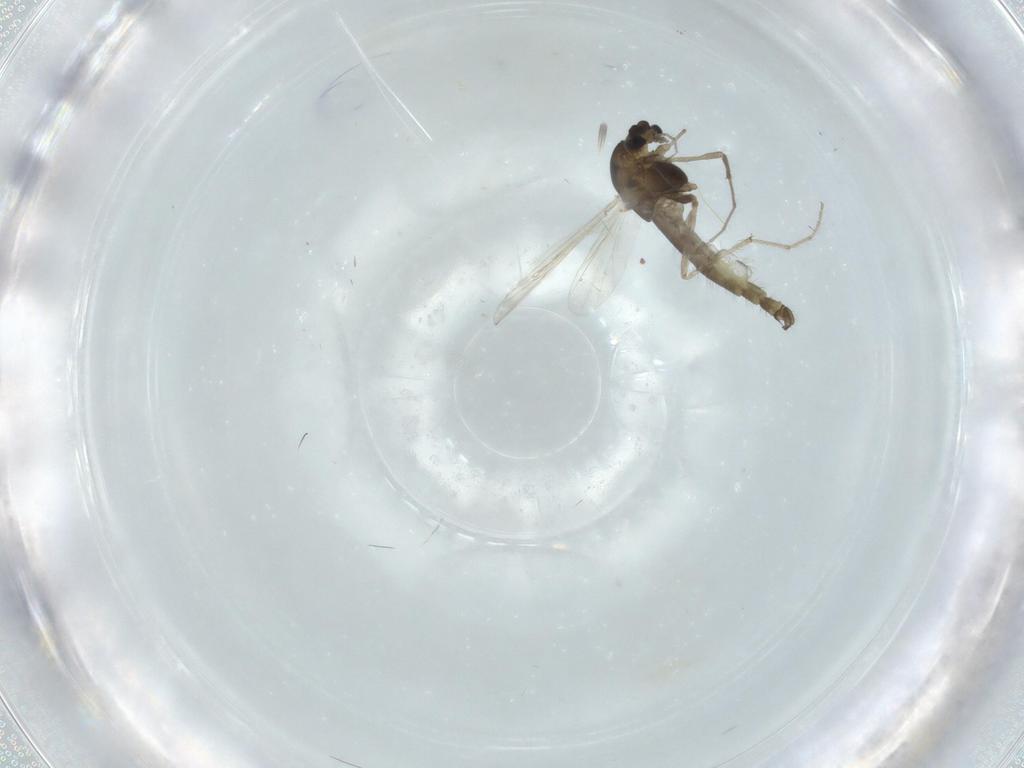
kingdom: Animalia
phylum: Arthropoda
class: Insecta
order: Diptera
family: Chironomidae
